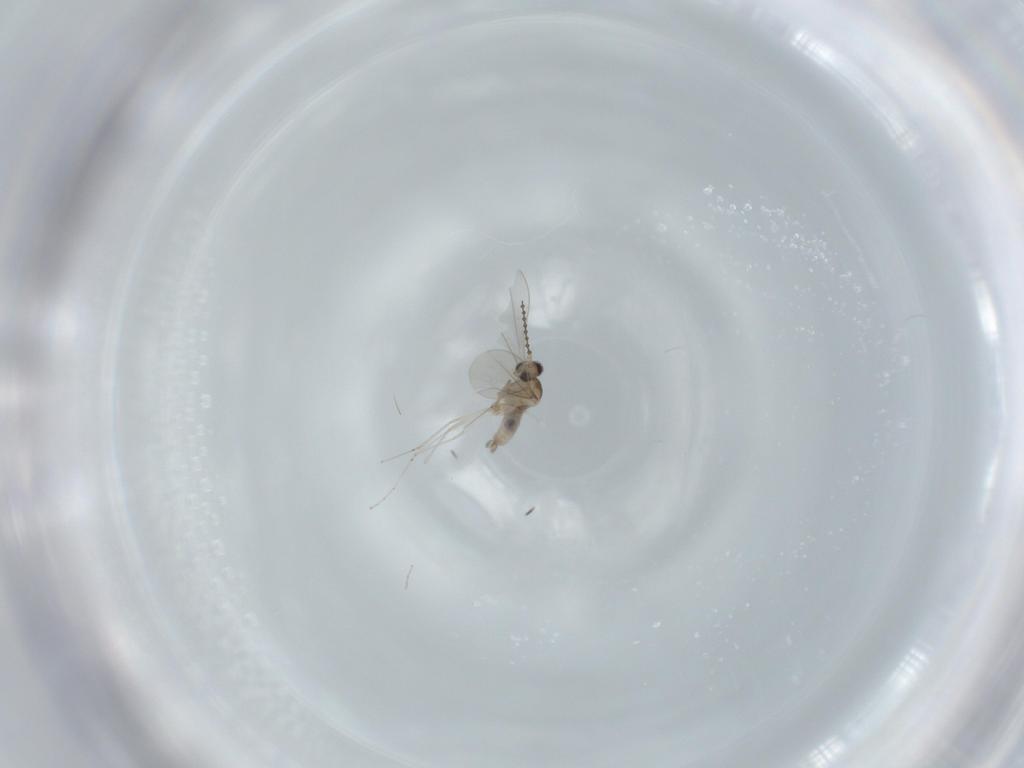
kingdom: Animalia
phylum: Arthropoda
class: Insecta
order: Diptera
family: Cecidomyiidae
